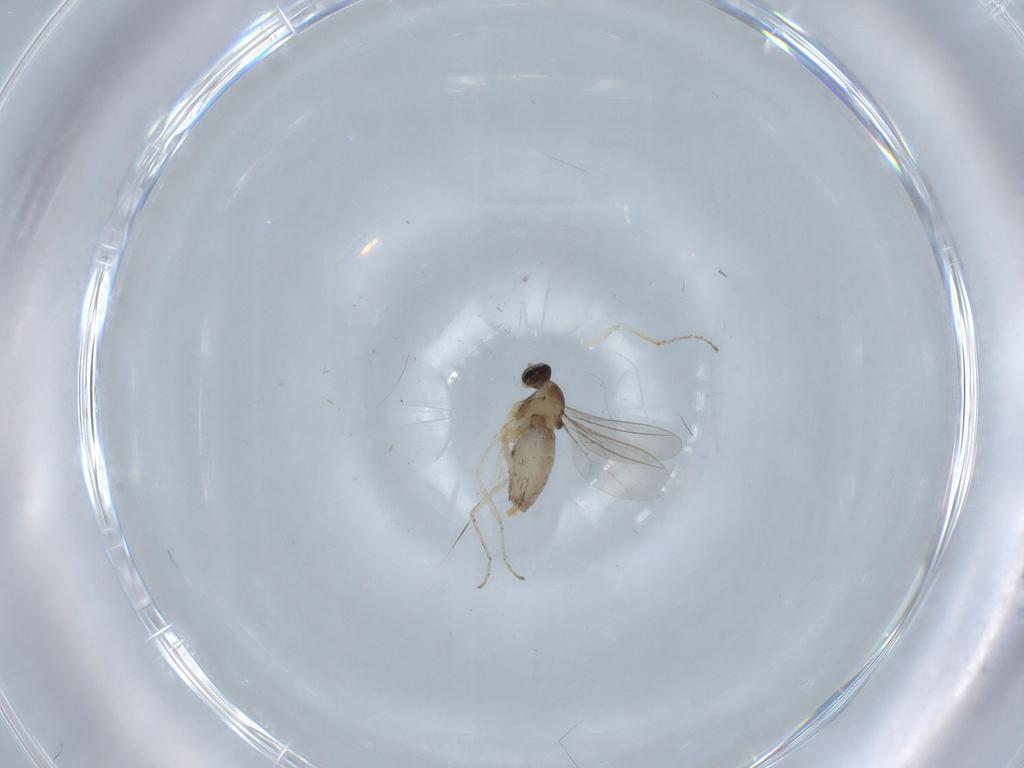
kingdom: Animalia
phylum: Arthropoda
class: Insecta
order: Diptera
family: Cecidomyiidae
